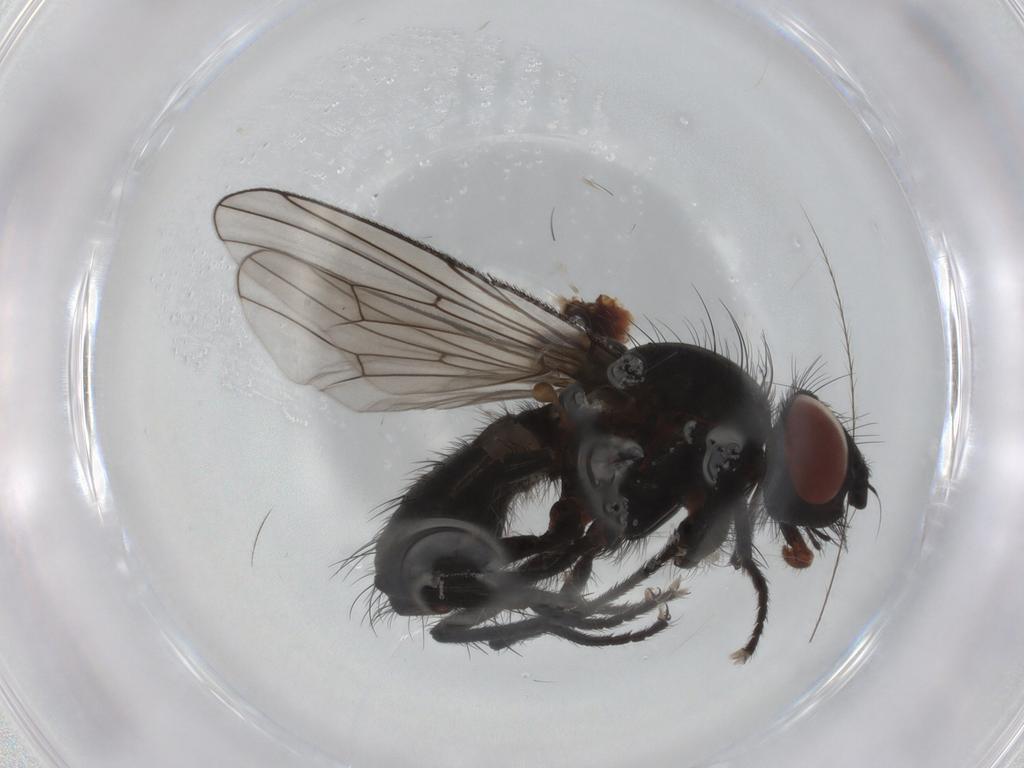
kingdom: Animalia
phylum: Arthropoda
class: Insecta
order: Diptera
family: Anthomyiidae
